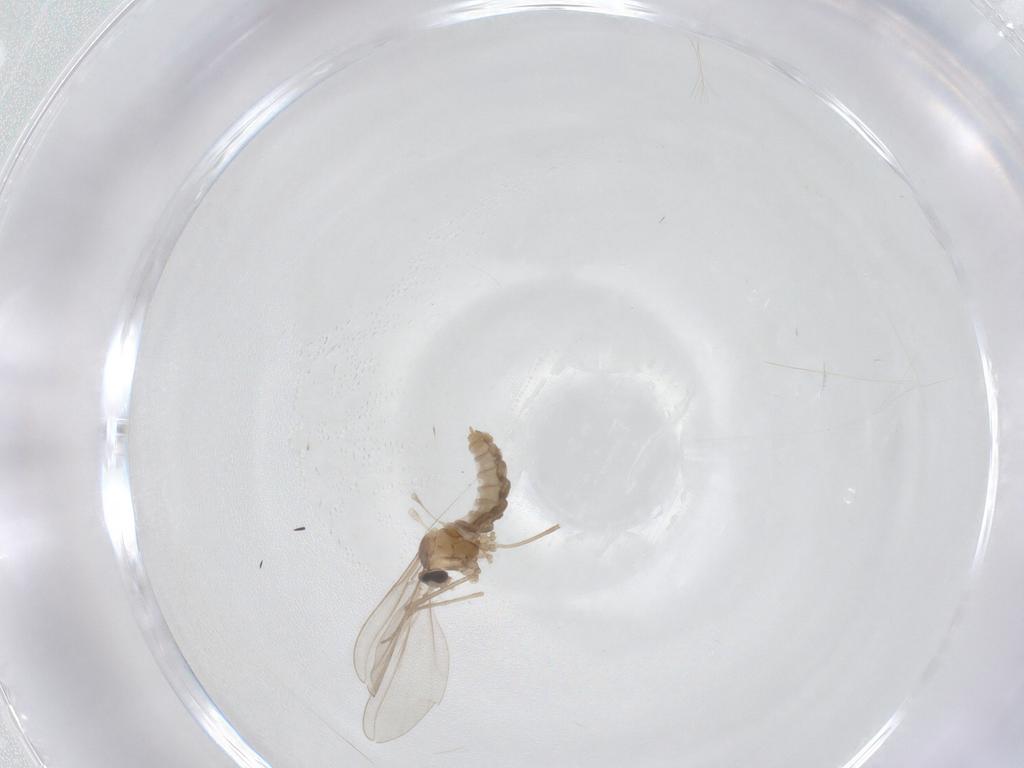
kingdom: Animalia
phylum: Arthropoda
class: Insecta
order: Diptera
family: Cecidomyiidae
